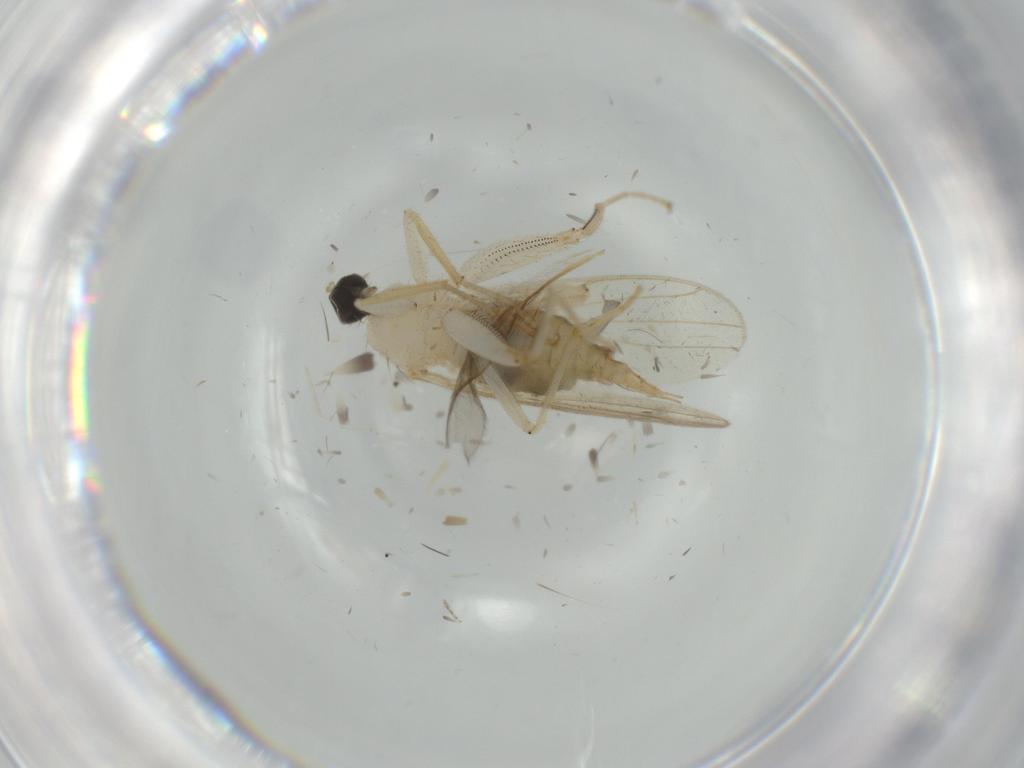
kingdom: Animalia
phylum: Arthropoda
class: Insecta
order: Diptera
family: Hybotidae
